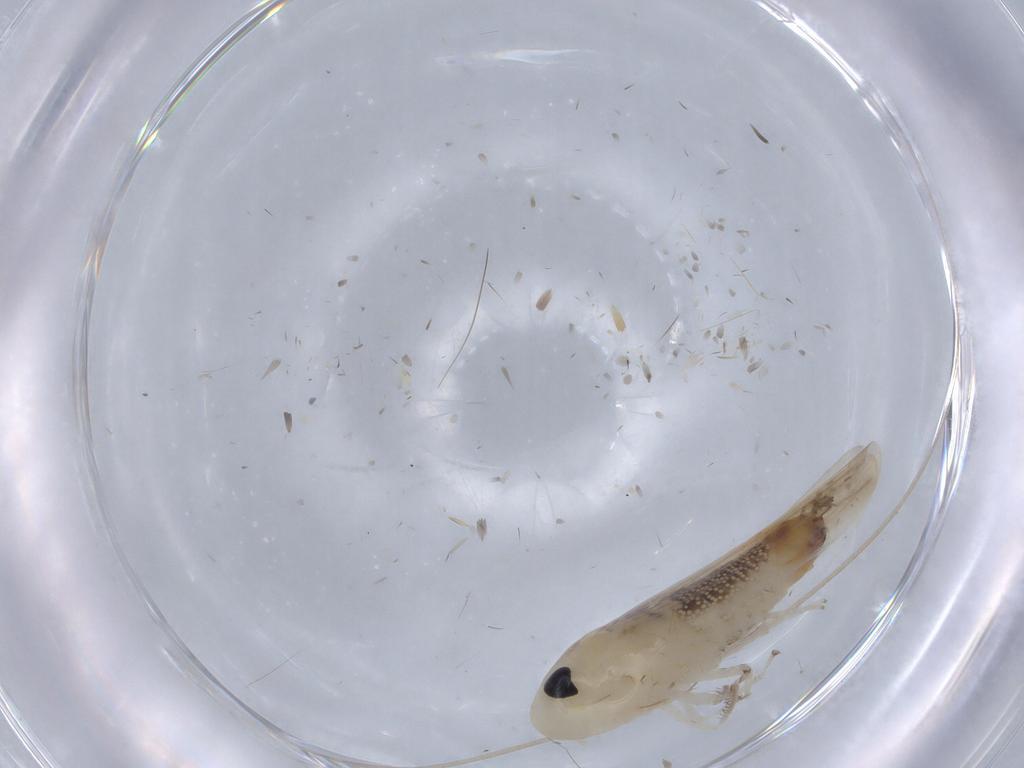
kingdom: Animalia
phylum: Arthropoda
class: Insecta
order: Hemiptera
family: Cicadellidae
